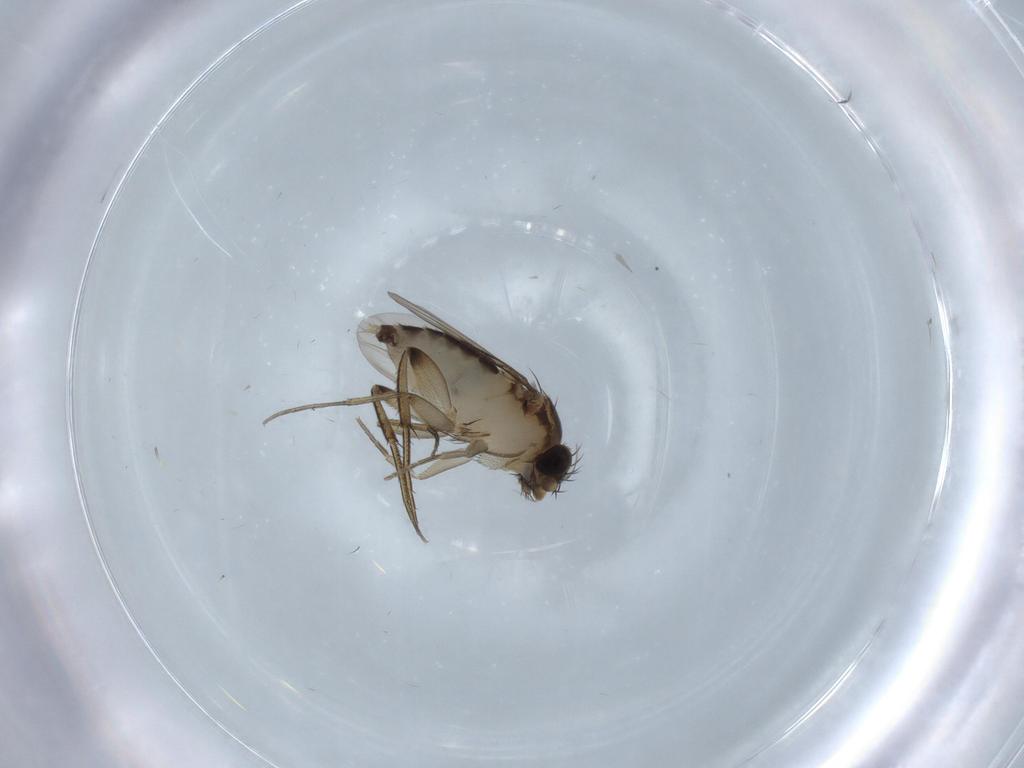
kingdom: Animalia
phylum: Arthropoda
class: Insecta
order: Diptera
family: Phoridae
